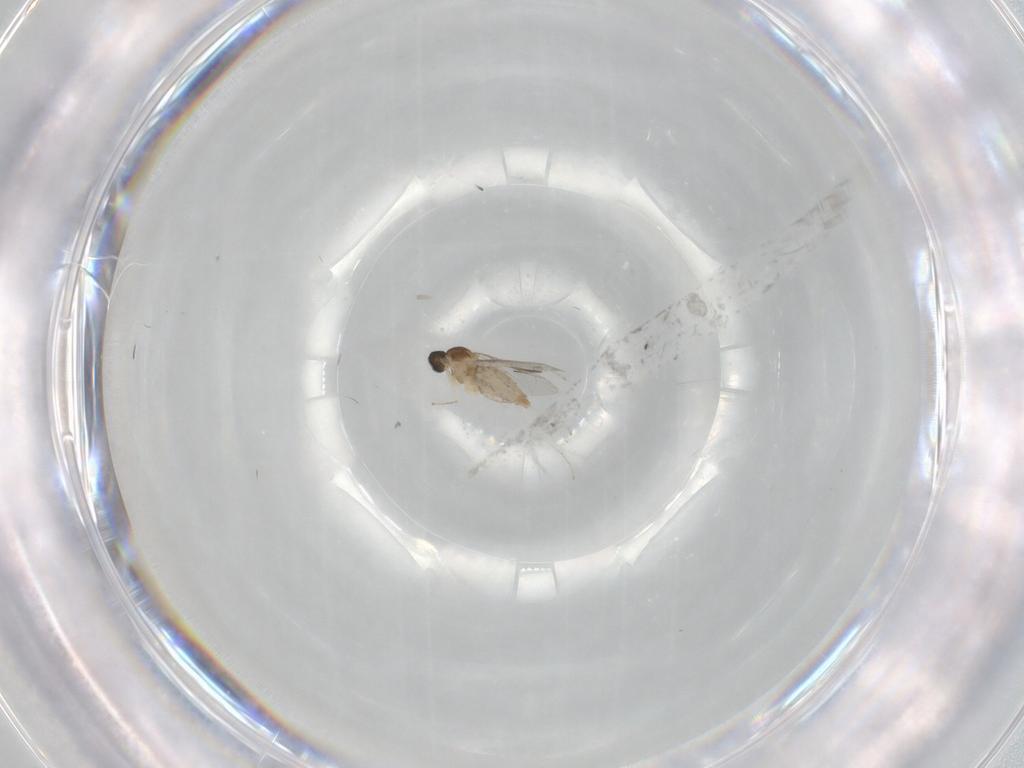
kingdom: Animalia
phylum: Arthropoda
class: Insecta
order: Diptera
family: Cecidomyiidae
